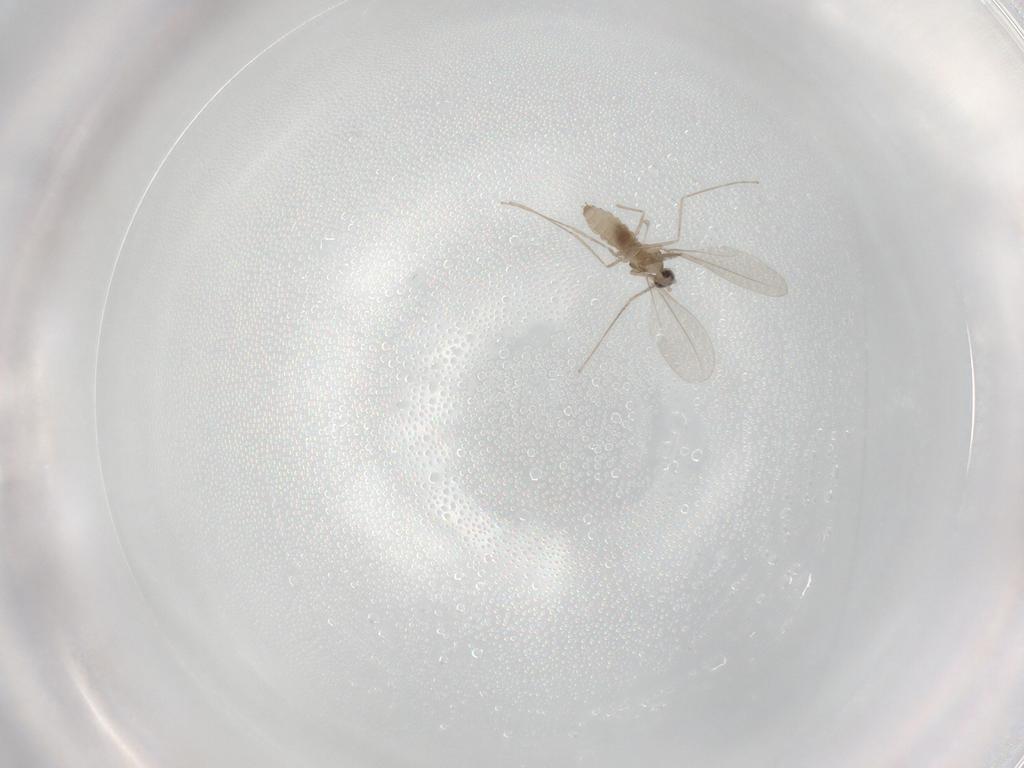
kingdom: Animalia
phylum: Arthropoda
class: Insecta
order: Diptera
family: Cecidomyiidae
